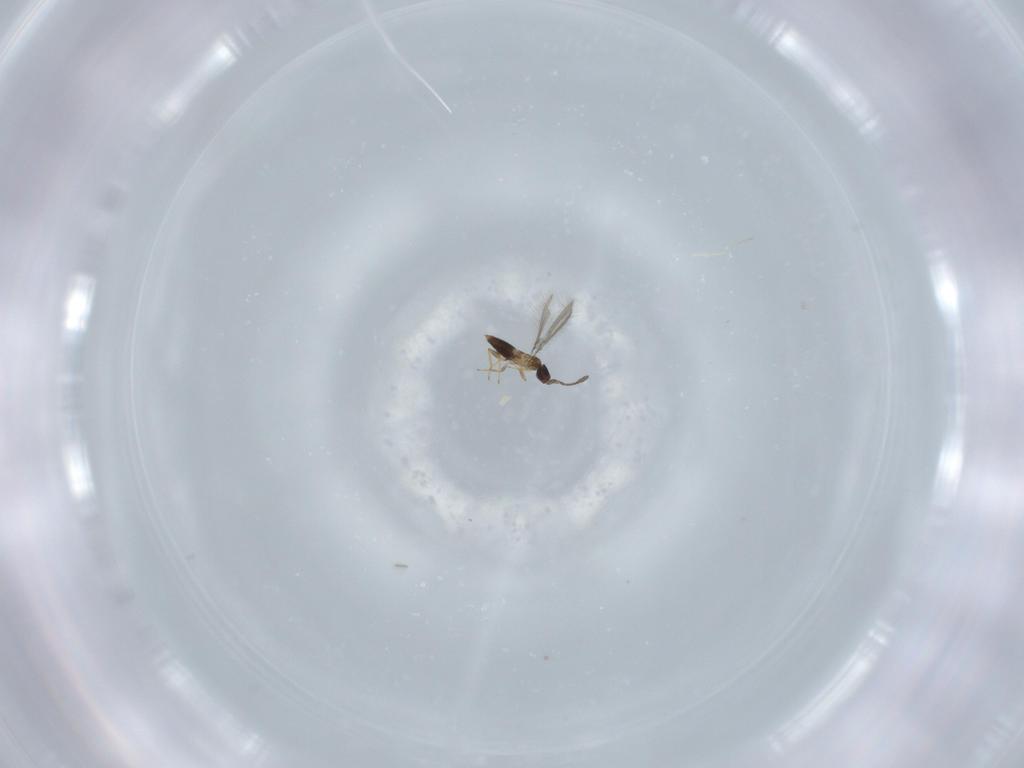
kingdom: Animalia
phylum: Arthropoda
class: Insecta
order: Hymenoptera
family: Mymaridae
